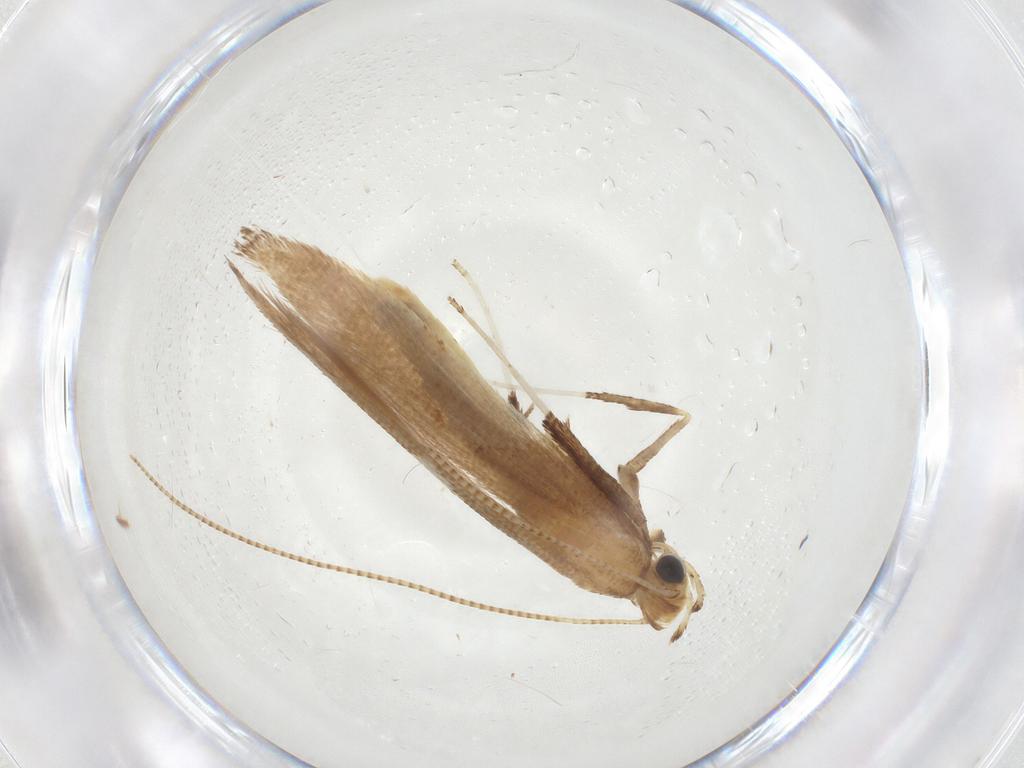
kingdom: Animalia
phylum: Arthropoda
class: Insecta
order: Lepidoptera
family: Gracillariidae
